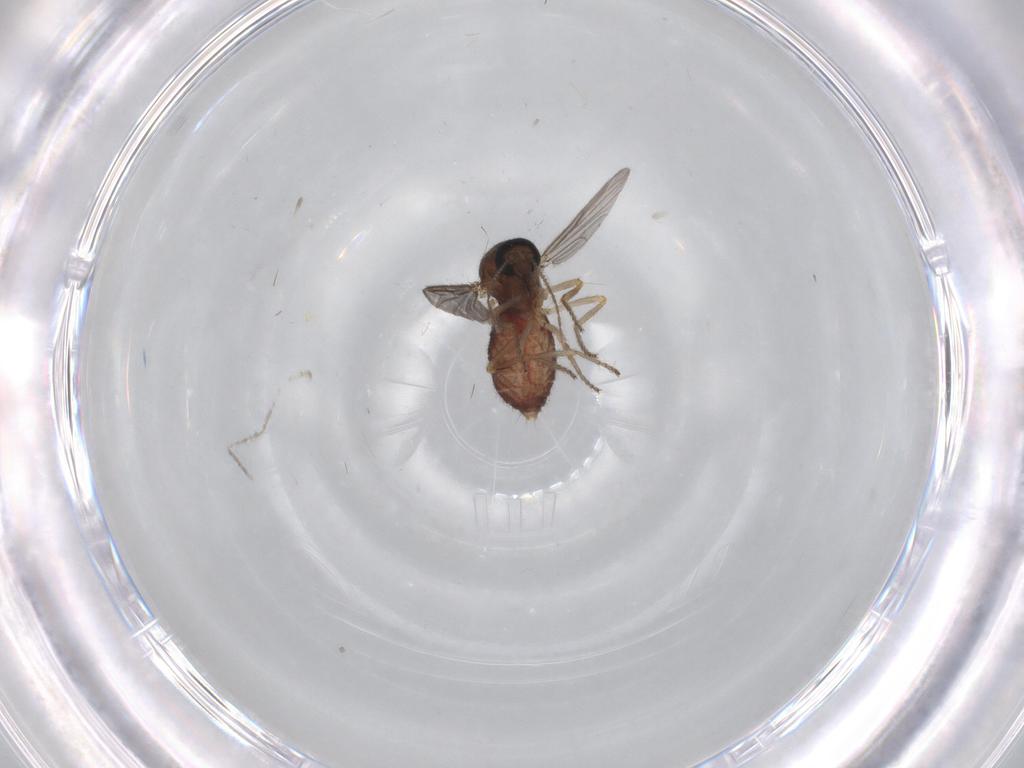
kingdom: Animalia
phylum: Arthropoda
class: Insecta
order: Diptera
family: Ceratopogonidae
